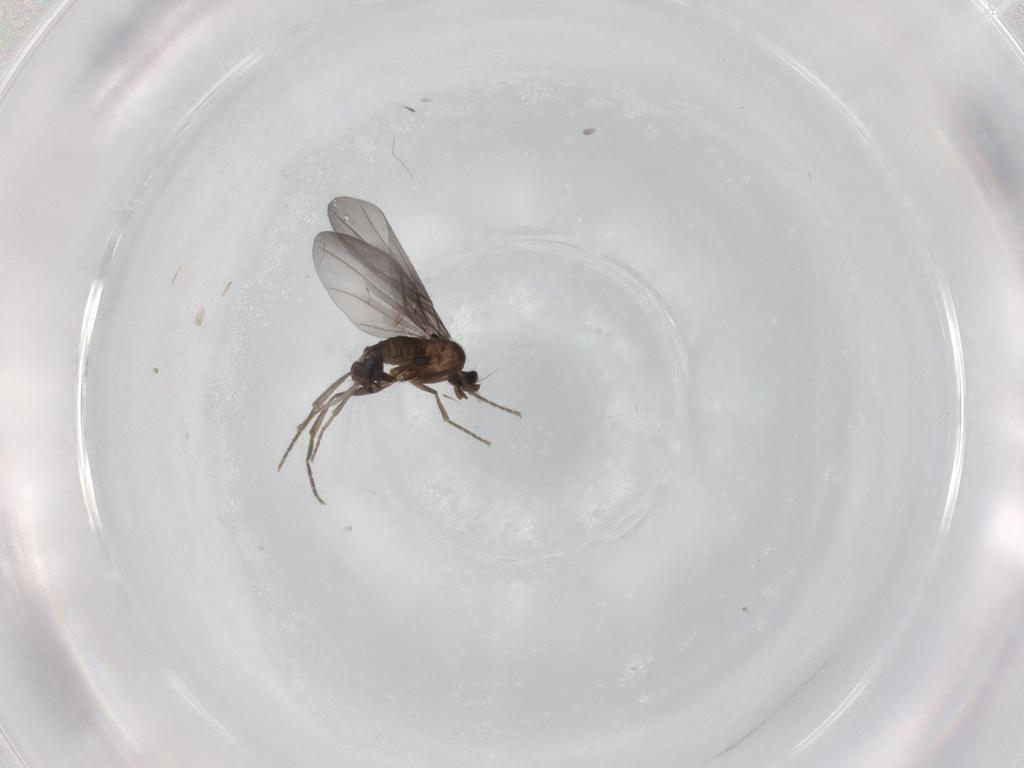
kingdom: Animalia
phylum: Arthropoda
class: Insecta
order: Diptera
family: Phoridae
